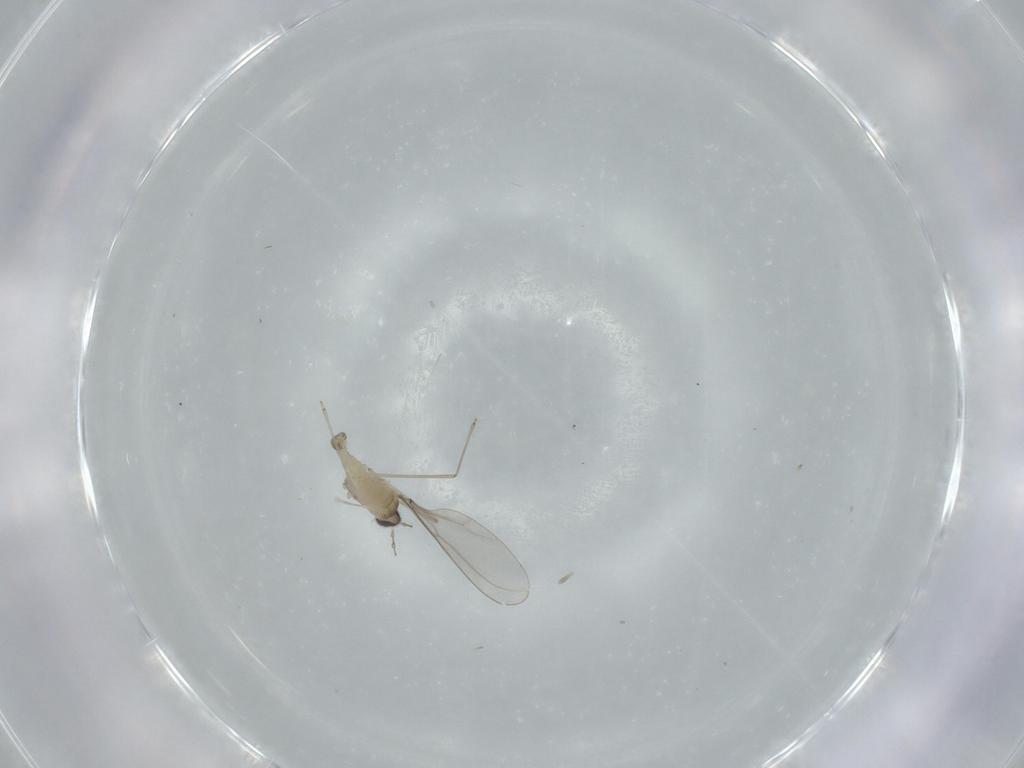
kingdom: Animalia
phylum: Arthropoda
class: Insecta
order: Diptera
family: Cecidomyiidae
